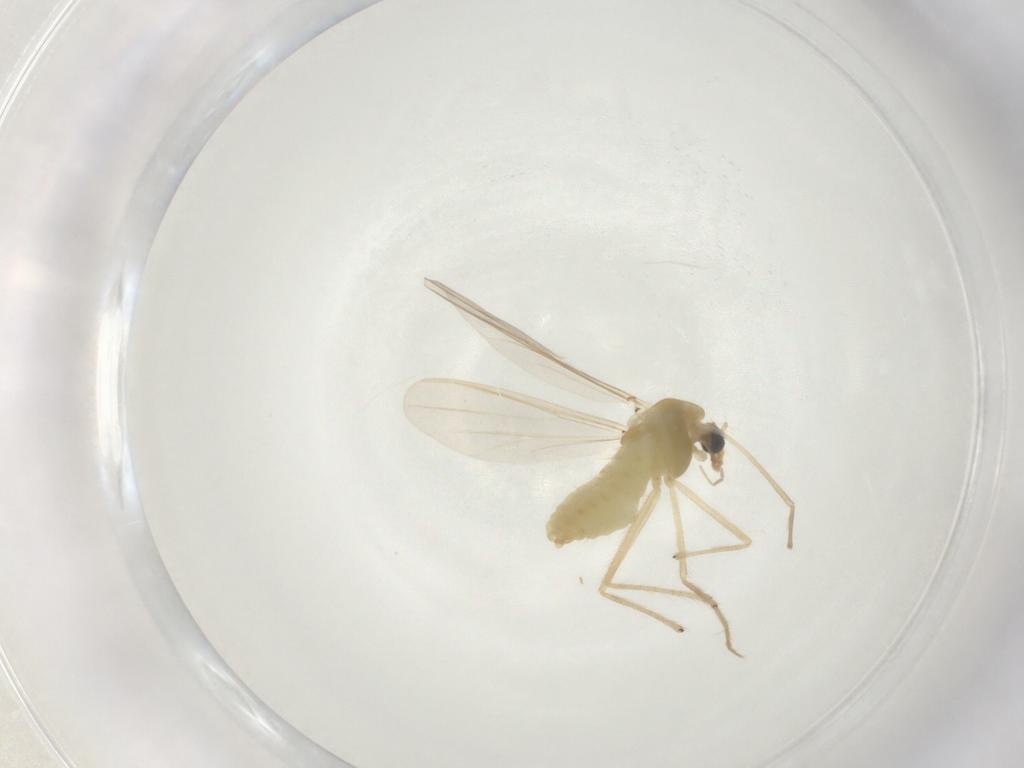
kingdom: Animalia
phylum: Arthropoda
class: Insecta
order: Diptera
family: Chironomidae
